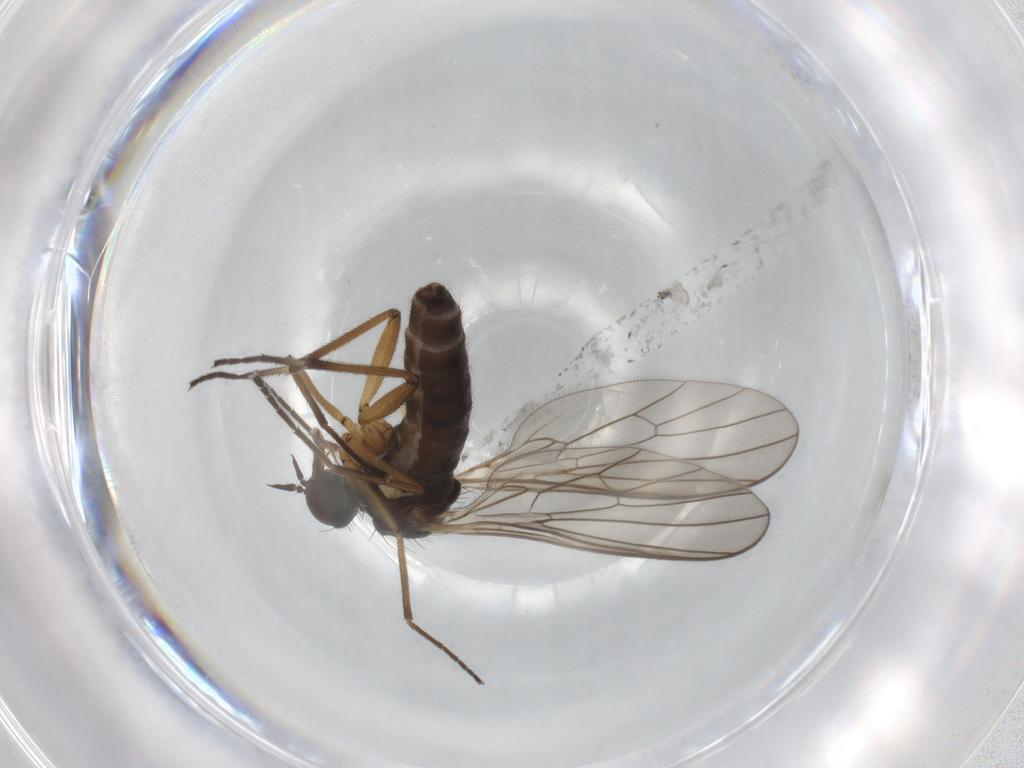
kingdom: Animalia
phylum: Arthropoda
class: Insecta
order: Diptera
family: Empididae
